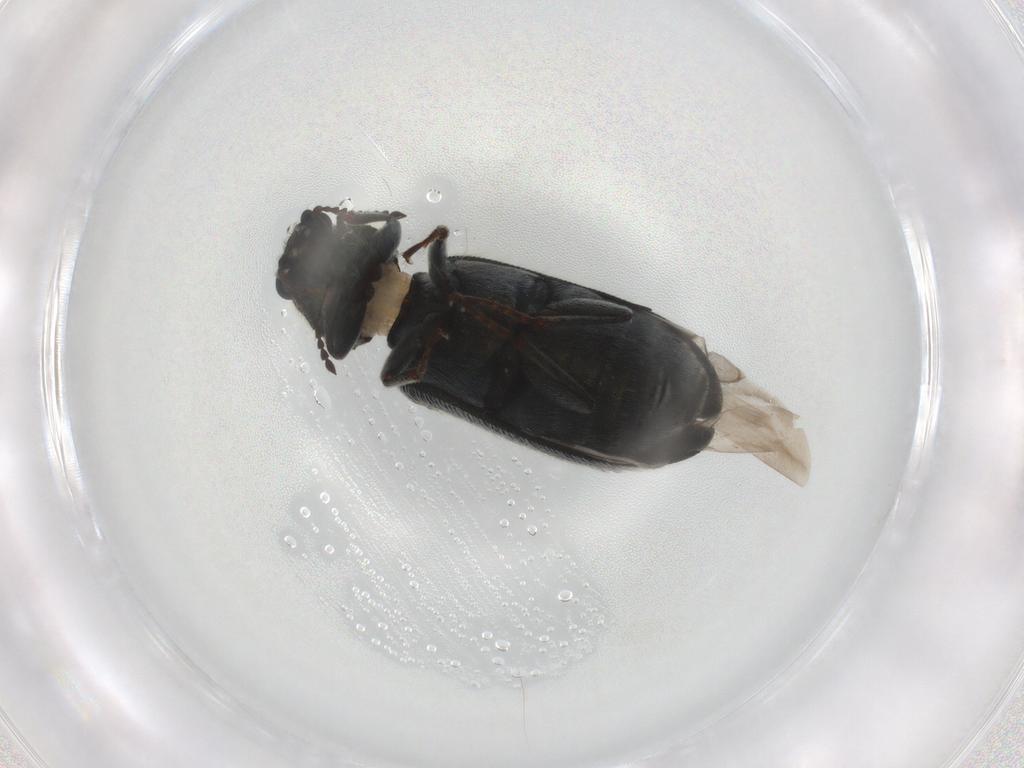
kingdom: Animalia
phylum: Arthropoda
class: Insecta
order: Coleoptera
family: Melyridae
